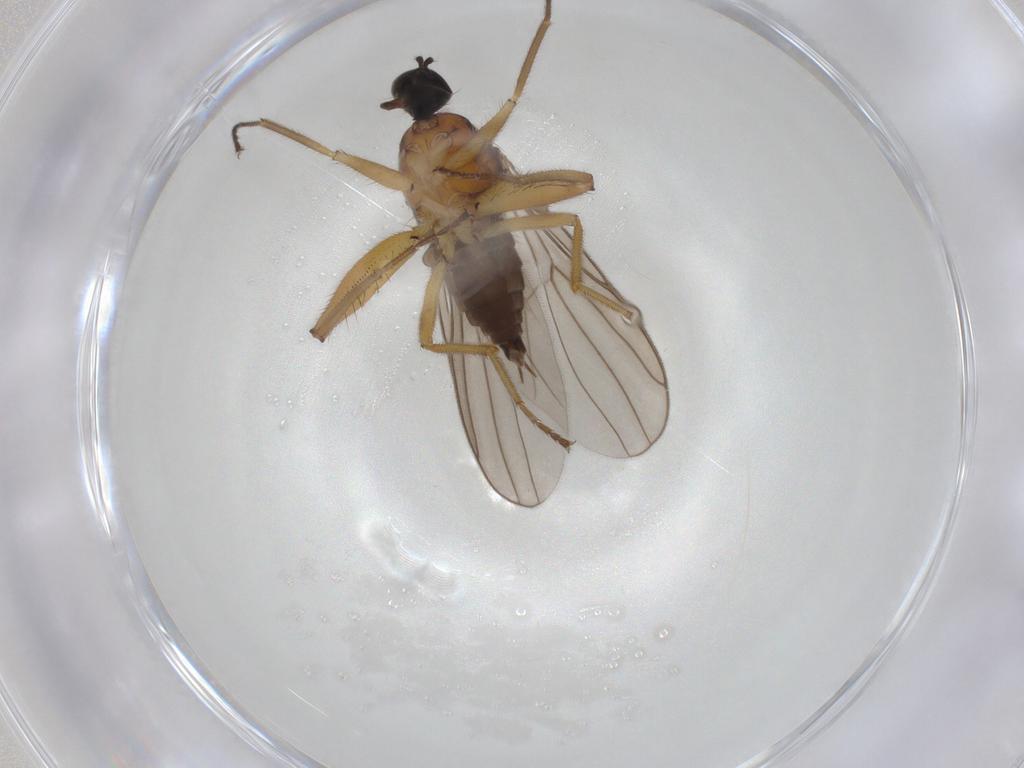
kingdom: Animalia
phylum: Arthropoda
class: Insecta
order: Diptera
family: Hybotidae
